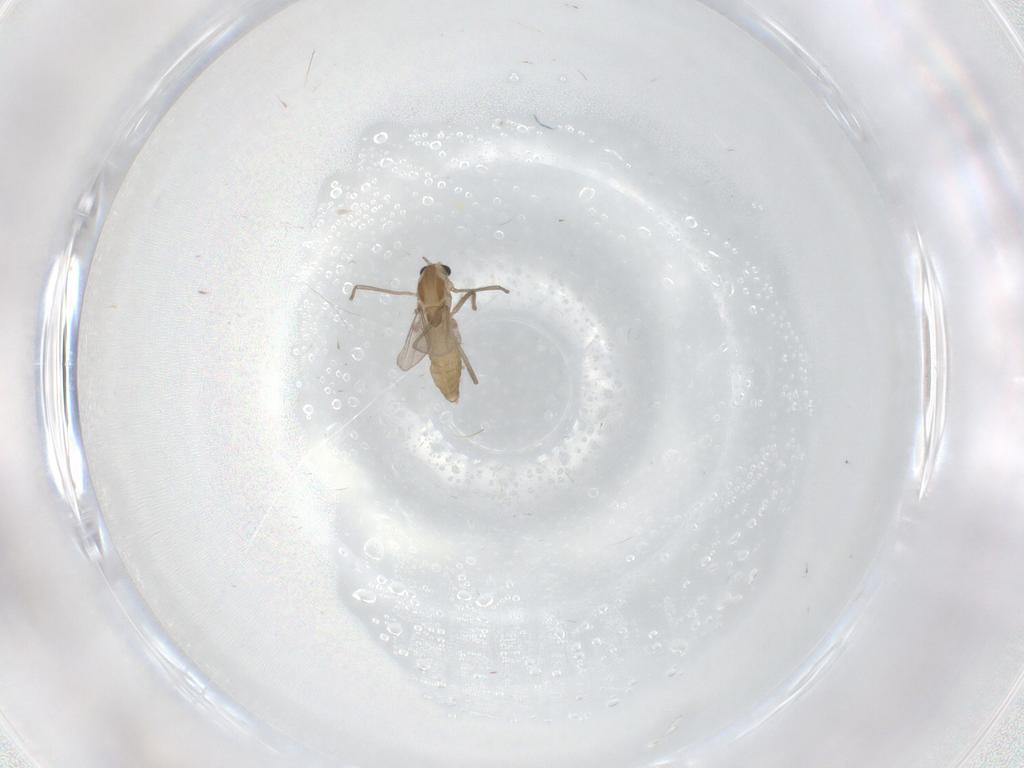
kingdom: Animalia
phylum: Arthropoda
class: Insecta
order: Diptera
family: Chironomidae
